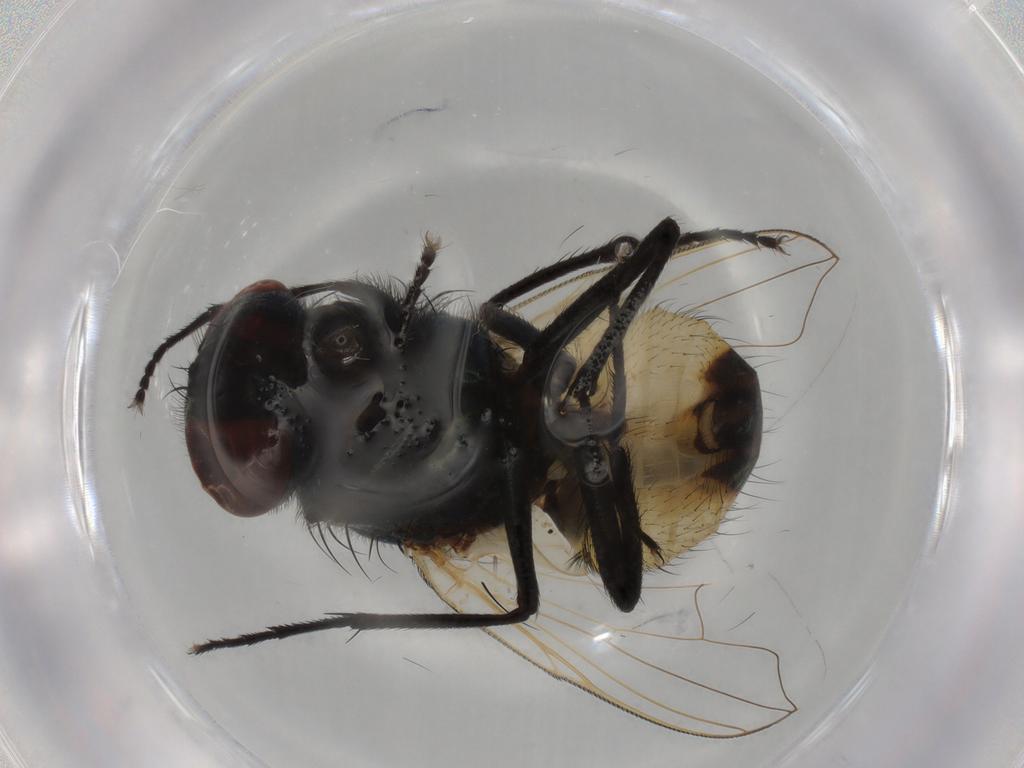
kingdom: Animalia
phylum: Arthropoda
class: Insecta
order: Diptera
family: Muscidae
